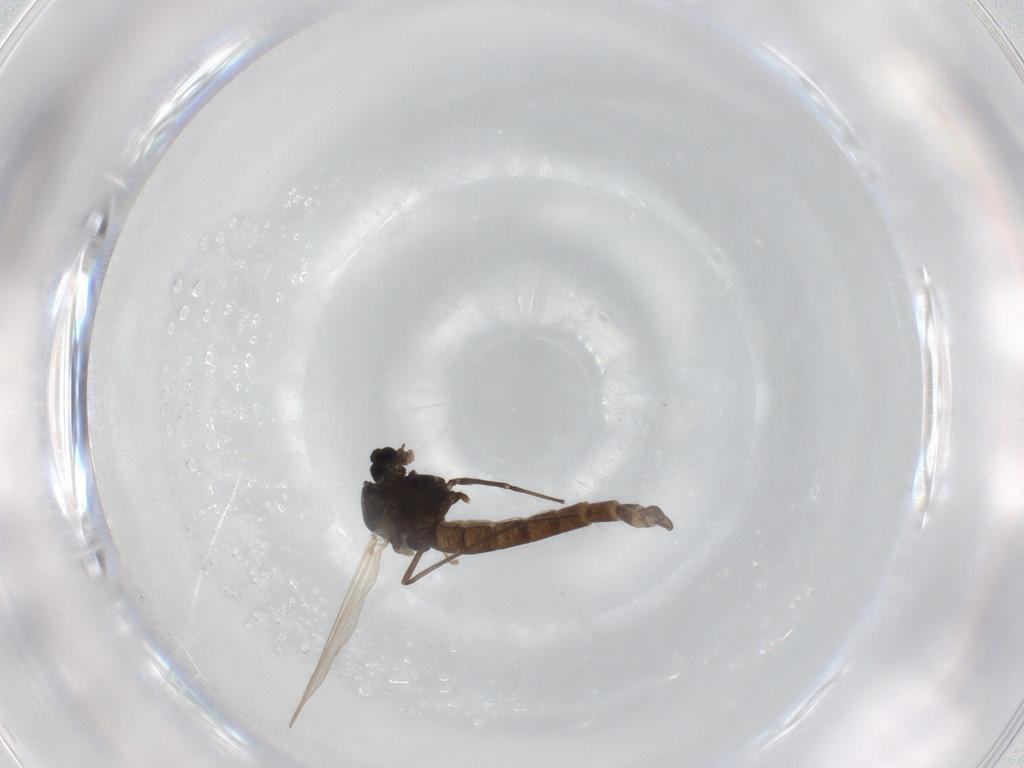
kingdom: Animalia
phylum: Arthropoda
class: Insecta
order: Diptera
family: Sciaridae
